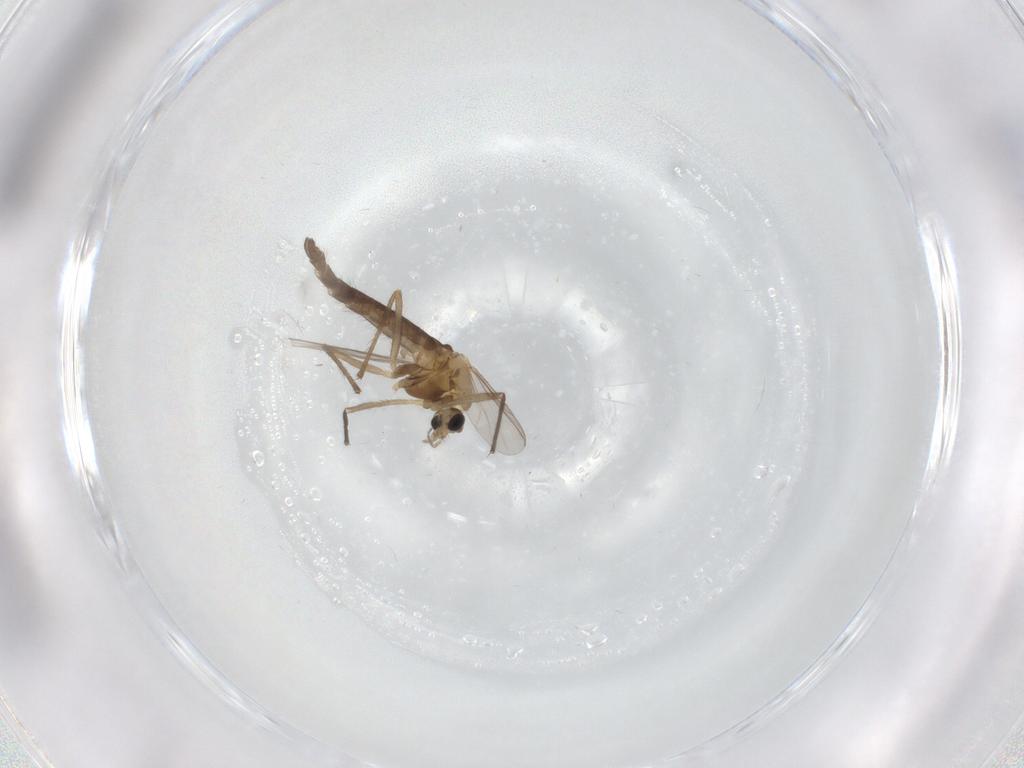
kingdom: Animalia
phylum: Arthropoda
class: Insecta
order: Diptera
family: Chironomidae
